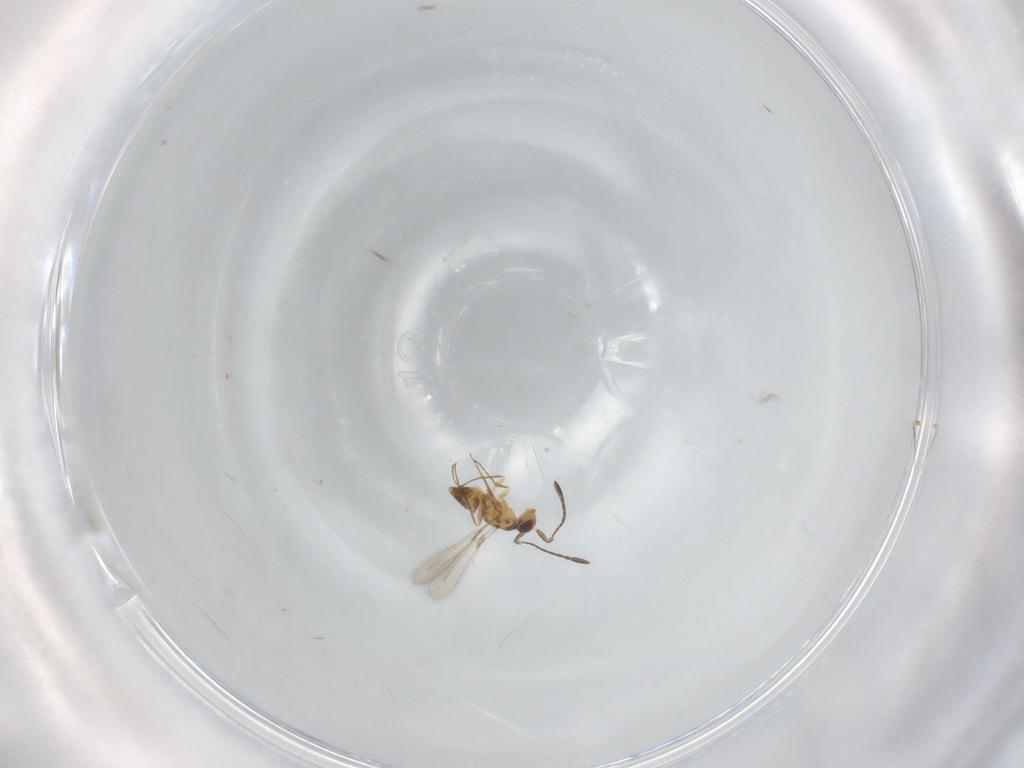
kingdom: Animalia
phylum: Arthropoda
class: Insecta
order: Hymenoptera
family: Mymaridae
